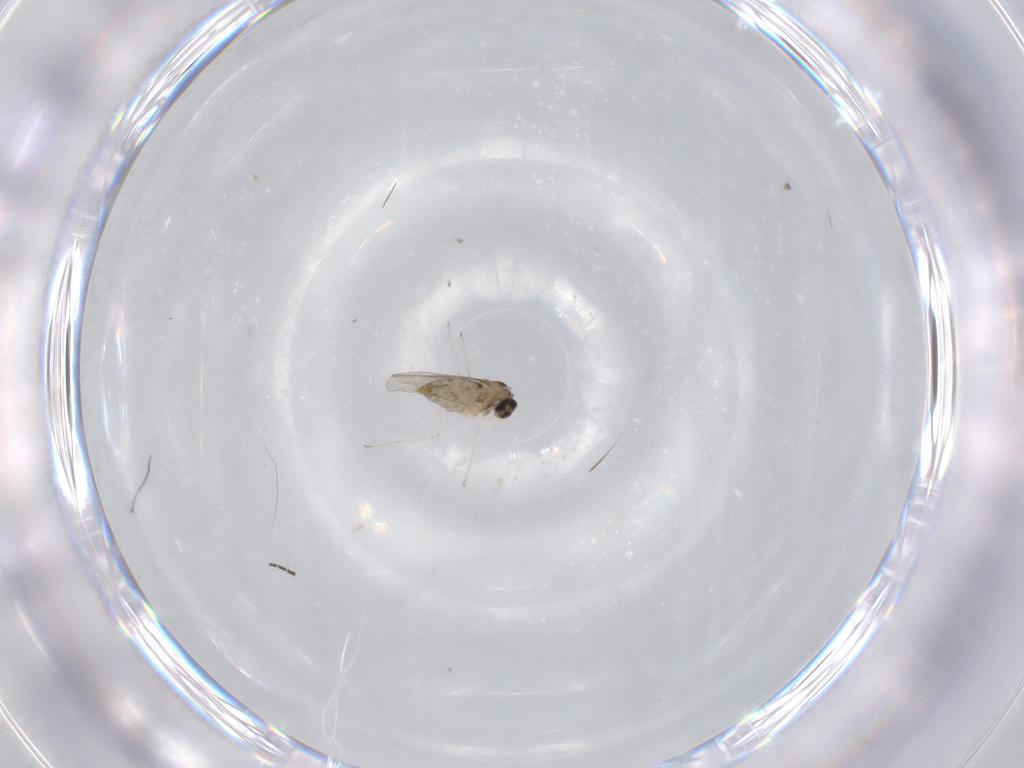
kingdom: Animalia
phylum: Arthropoda
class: Insecta
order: Diptera
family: Cecidomyiidae
